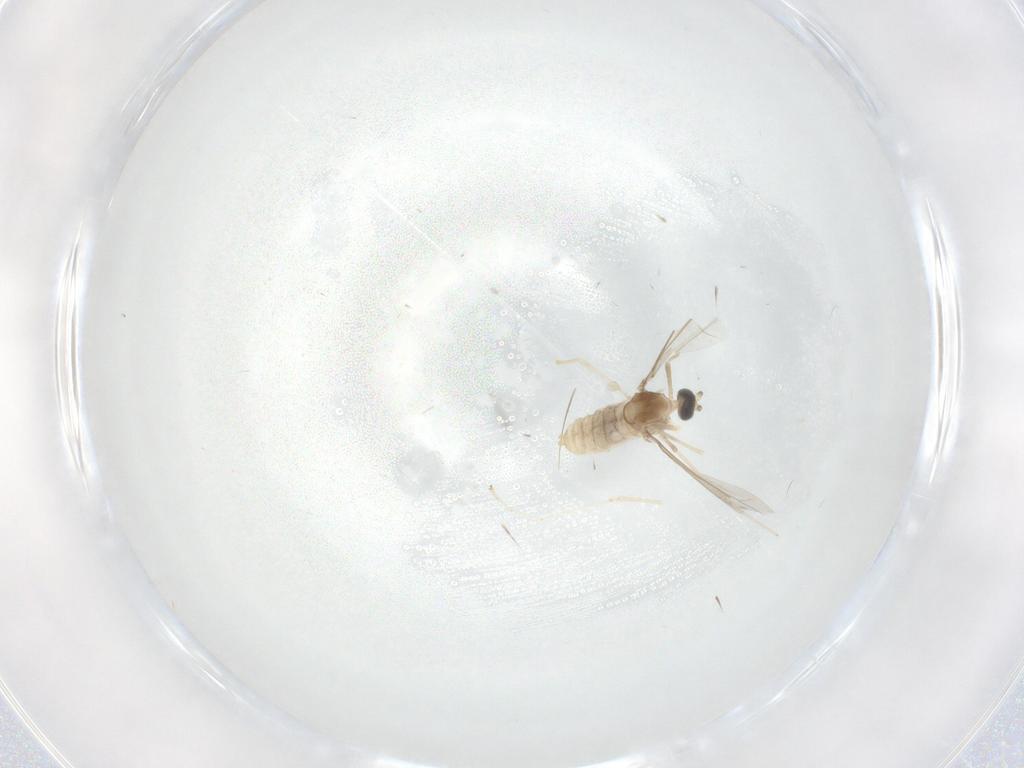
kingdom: Animalia
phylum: Arthropoda
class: Insecta
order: Diptera
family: Cecidomyiidae
